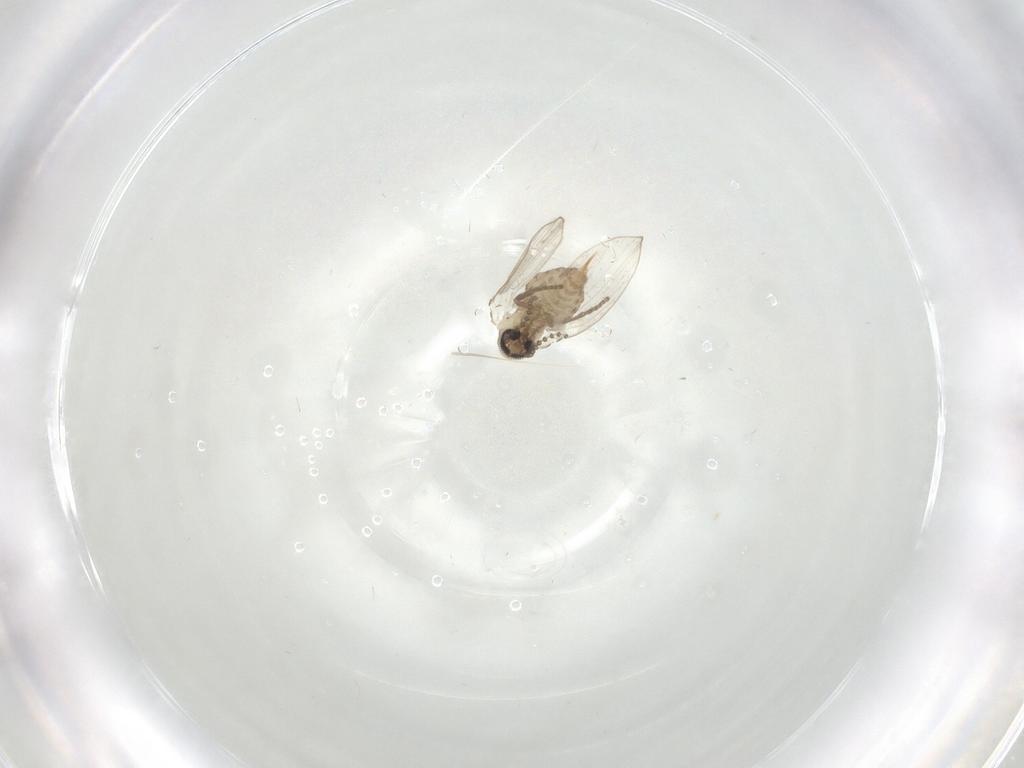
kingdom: Animalia
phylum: Arthropoda
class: Insecta
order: Diptera
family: Psychodidae
